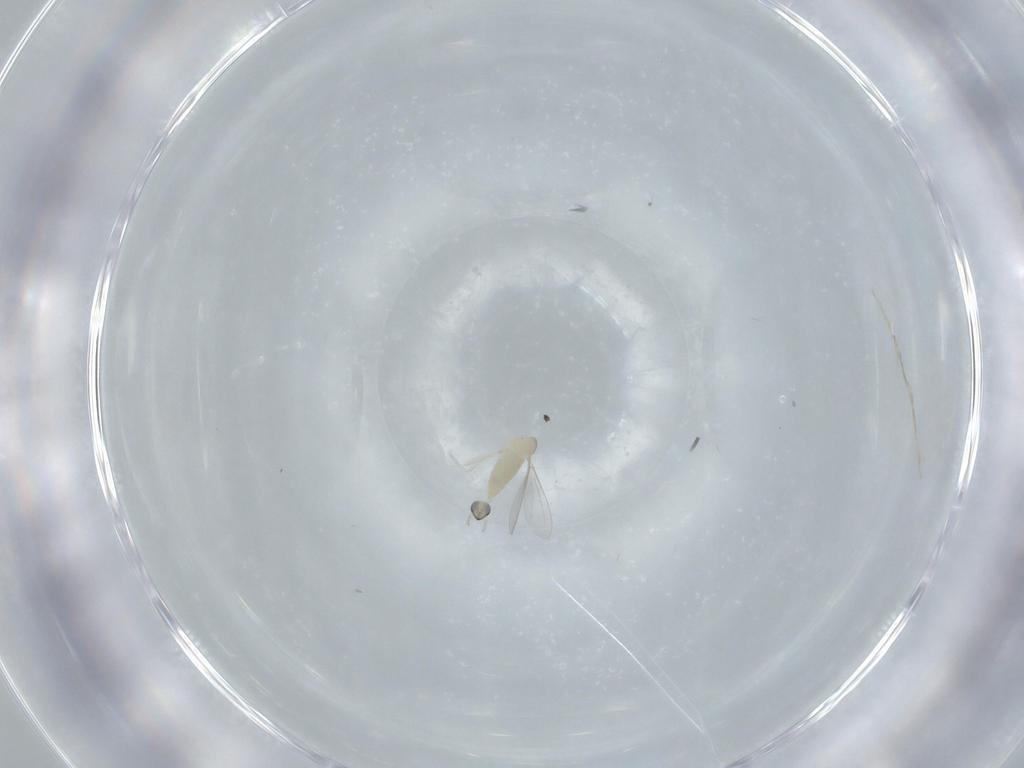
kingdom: Animalia
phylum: Arthropoda
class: Insecta
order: Diptera
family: Cecidomyiidae
